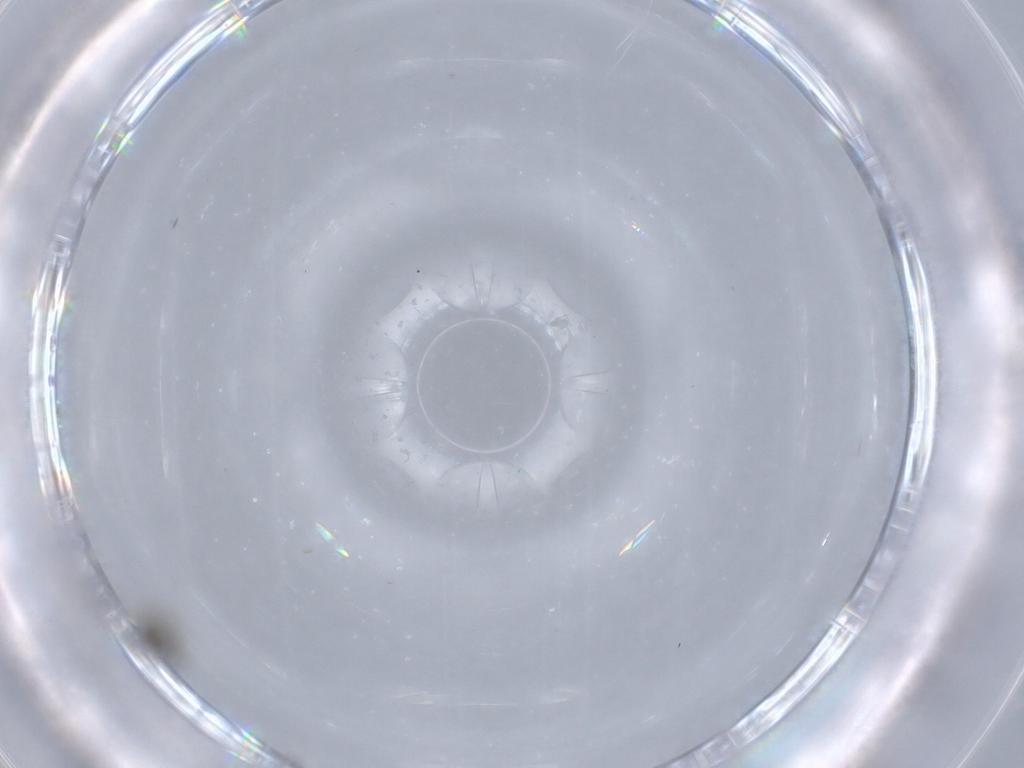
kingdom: Animalia
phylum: Arthropoda
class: Insecta
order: Diptera
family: Cecidomyiidae
